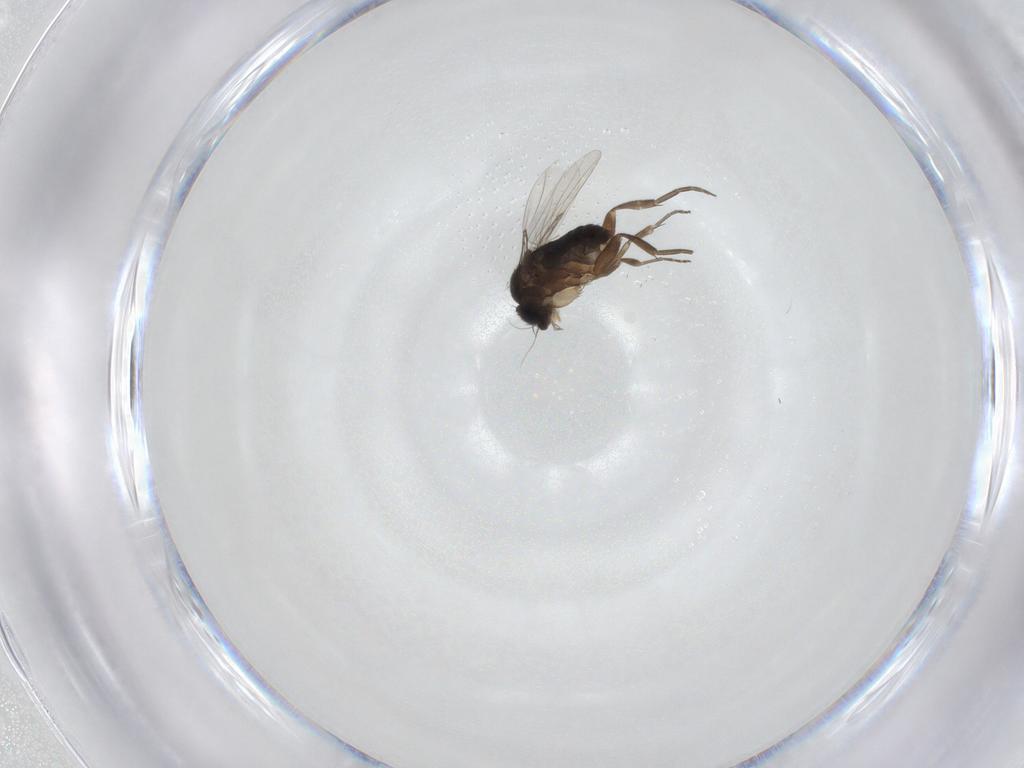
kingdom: Animalia
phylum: Arthropoda
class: Insecta
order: Diptera
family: Phoridae
